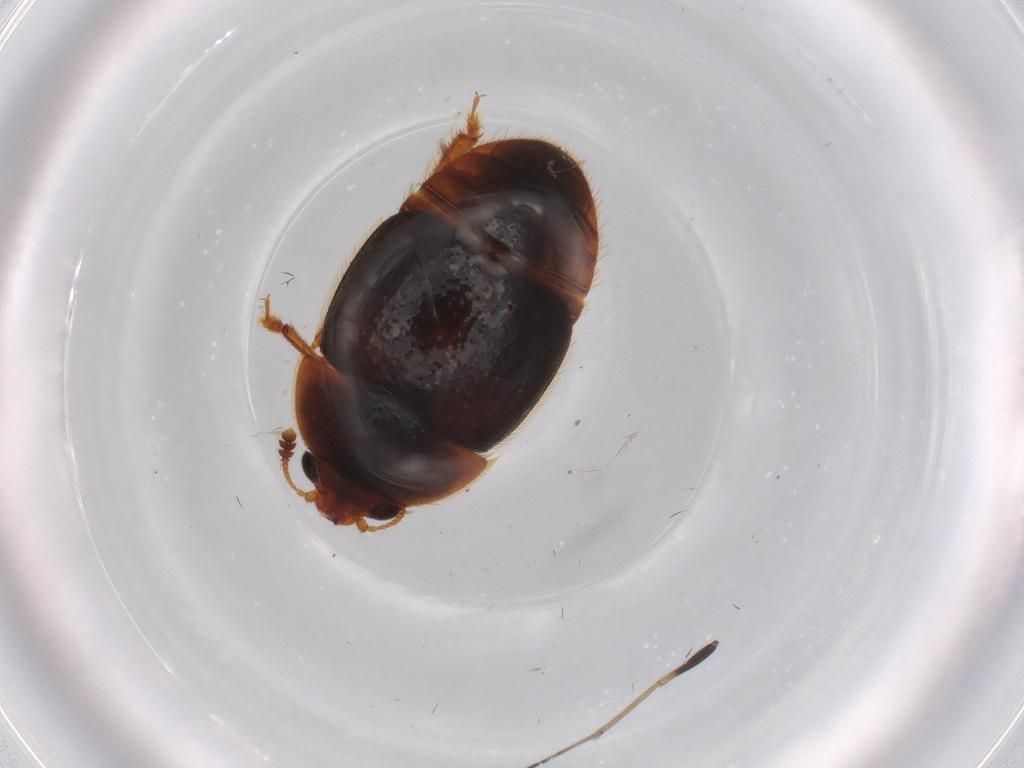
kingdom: Animalia
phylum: Arthropoda
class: Insecta
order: Coleoptera
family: Nitidulidae
